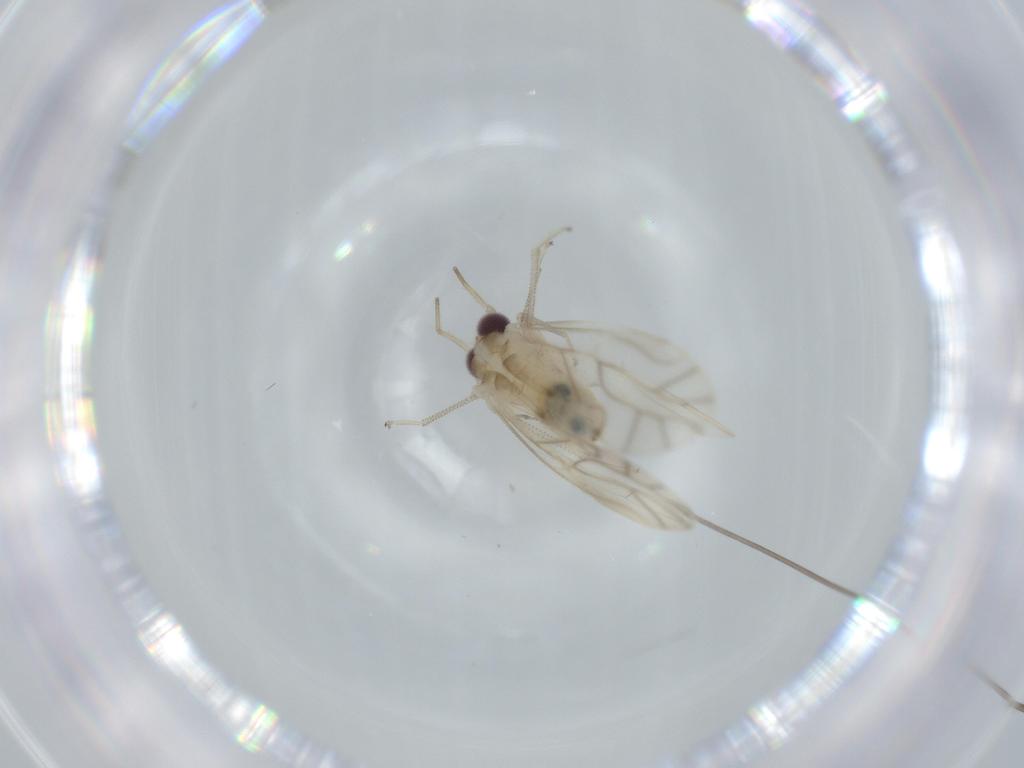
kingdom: Animalia
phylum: Arthropoda
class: Insecta
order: Psocodea
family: Caeciliusidae
